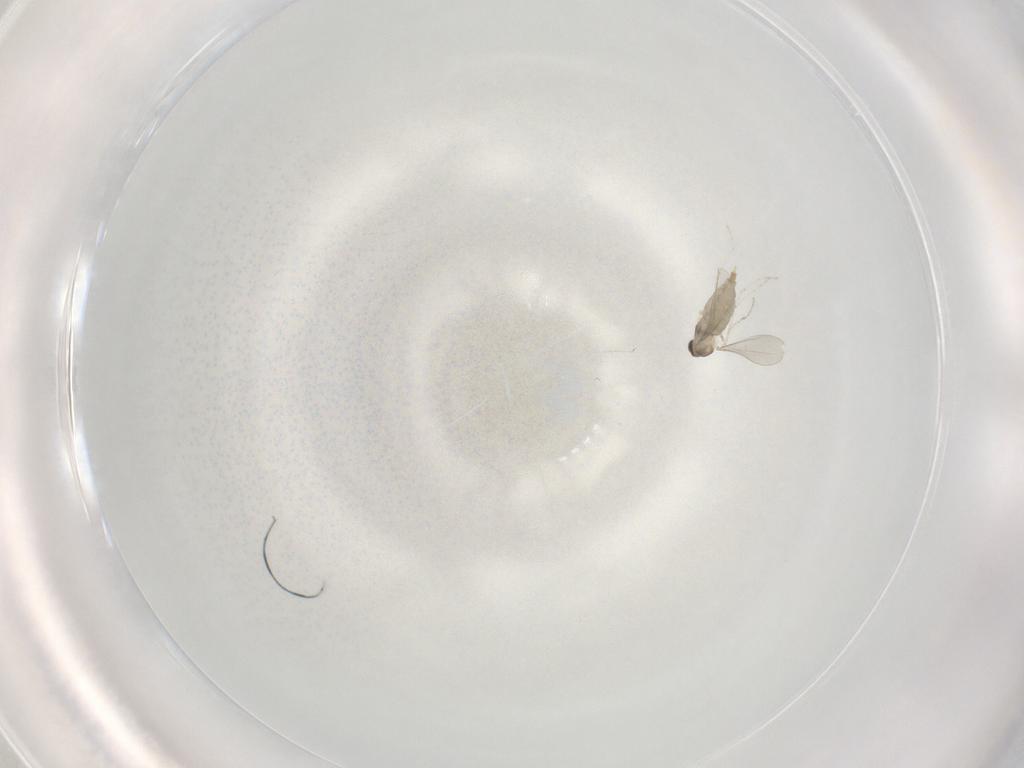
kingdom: Animalia
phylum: Arthropoda
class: Insecta
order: Diptera
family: Cecidomyiidae
